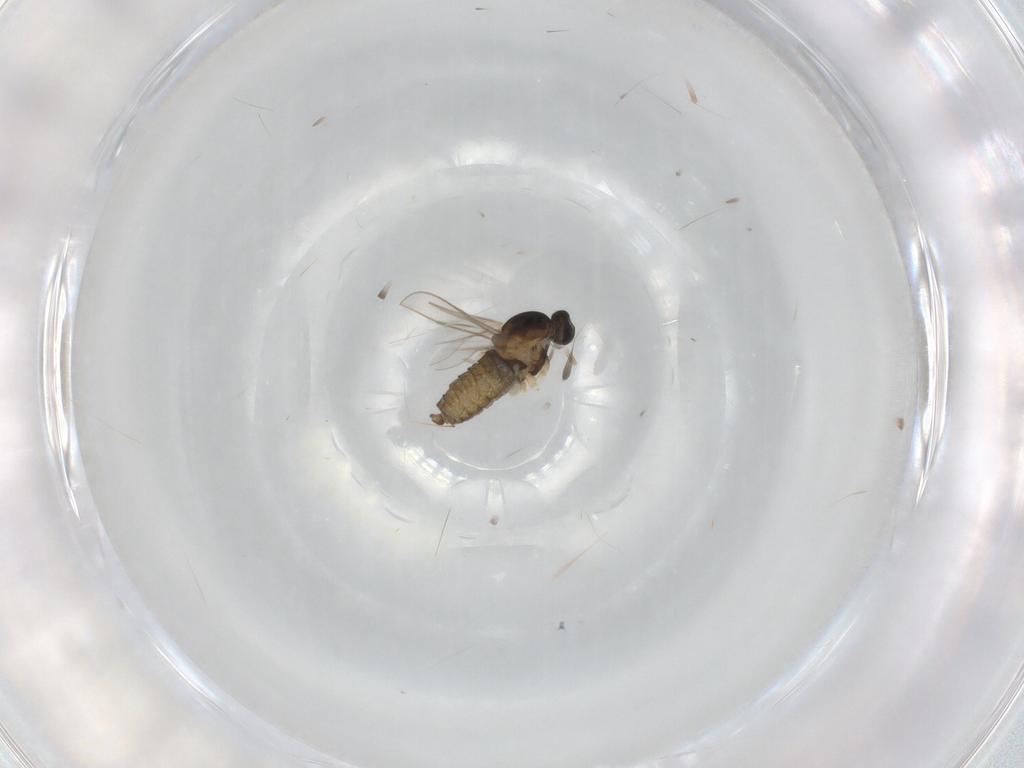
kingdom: Animalia
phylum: Arthropoda
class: Insecta
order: Diptera
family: Cecidomyiidae
